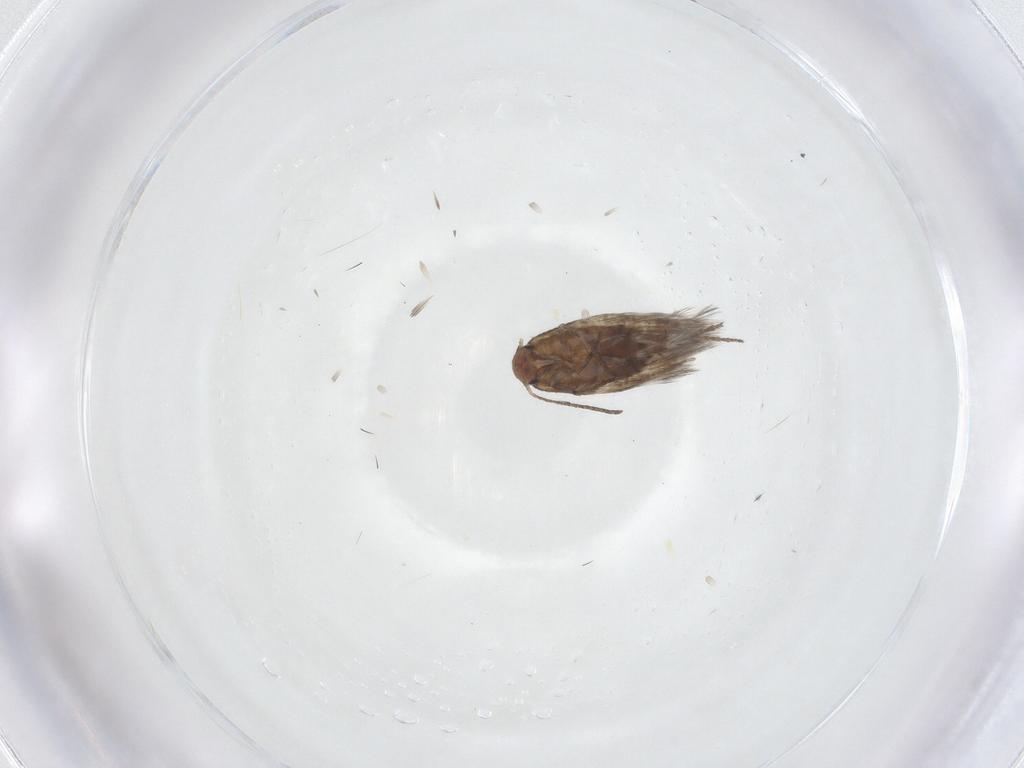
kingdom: Animalia
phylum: Arthropoda
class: Insecta
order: Lepidoptera
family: Lyonetiidae
